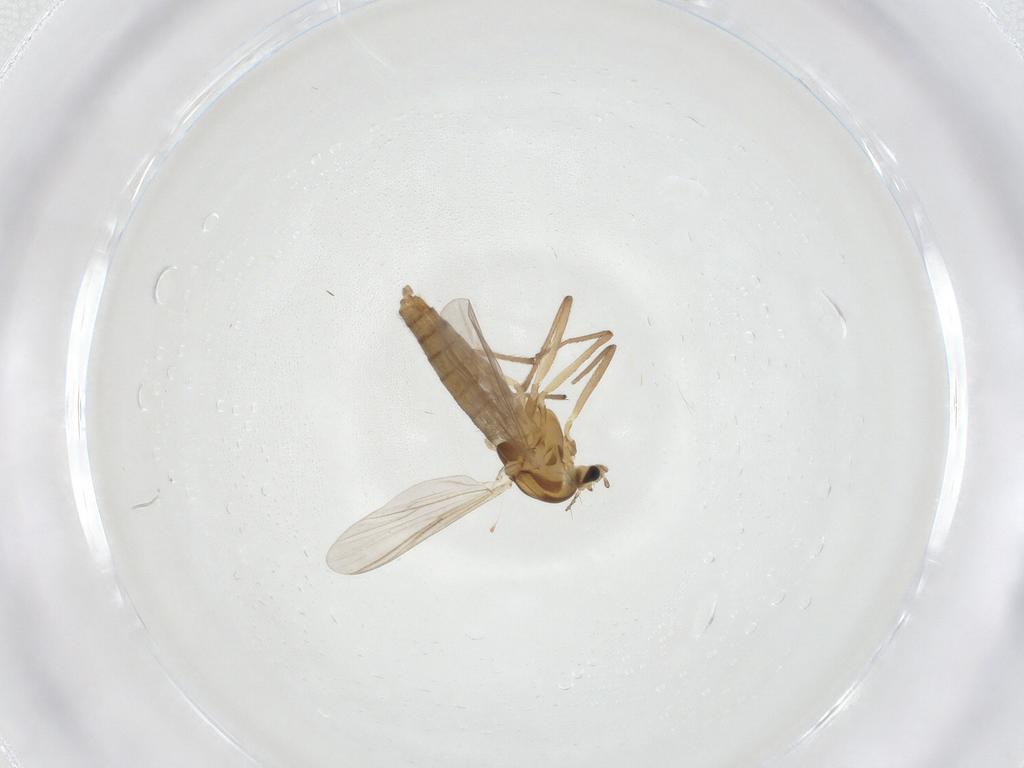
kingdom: Animalia
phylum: Arthropoda
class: Insecta
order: Diptera
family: Chironomidae
